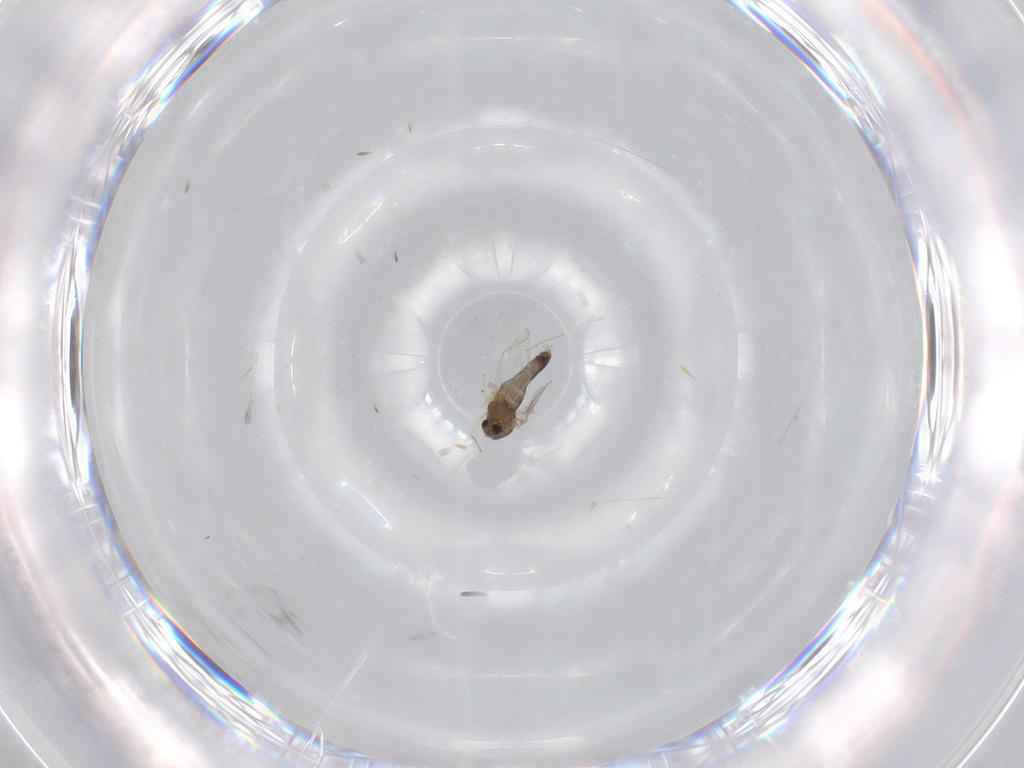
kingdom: Animalia
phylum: Arthropoda
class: Insecta
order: Diptera
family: Chironomidae
